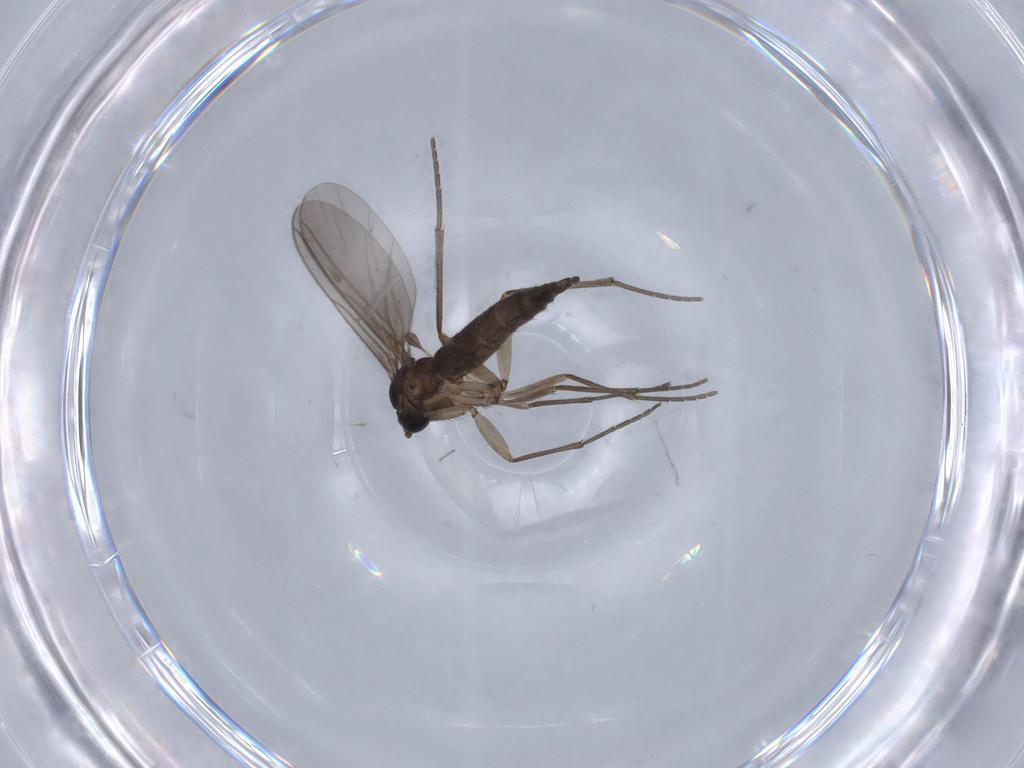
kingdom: Animalia
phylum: Arthropoda
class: Insecta
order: Diptera
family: Sciaridae
